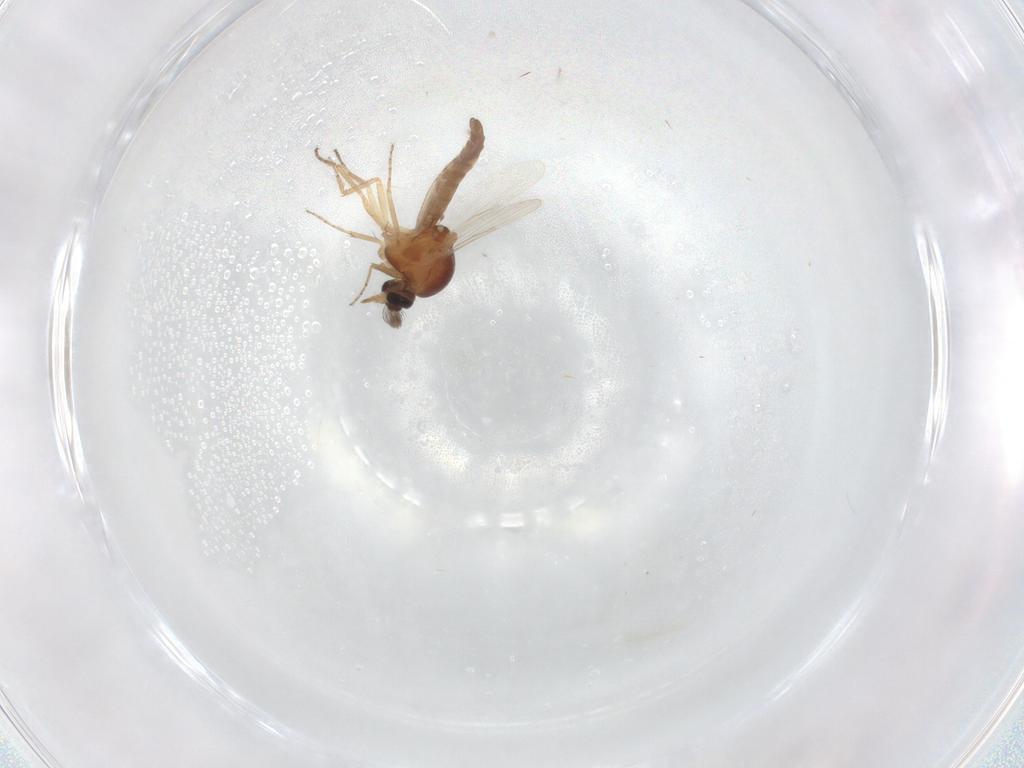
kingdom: Animalia
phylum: Arthropoda
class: Insecta
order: Diptera
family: Ceratopogonidae
